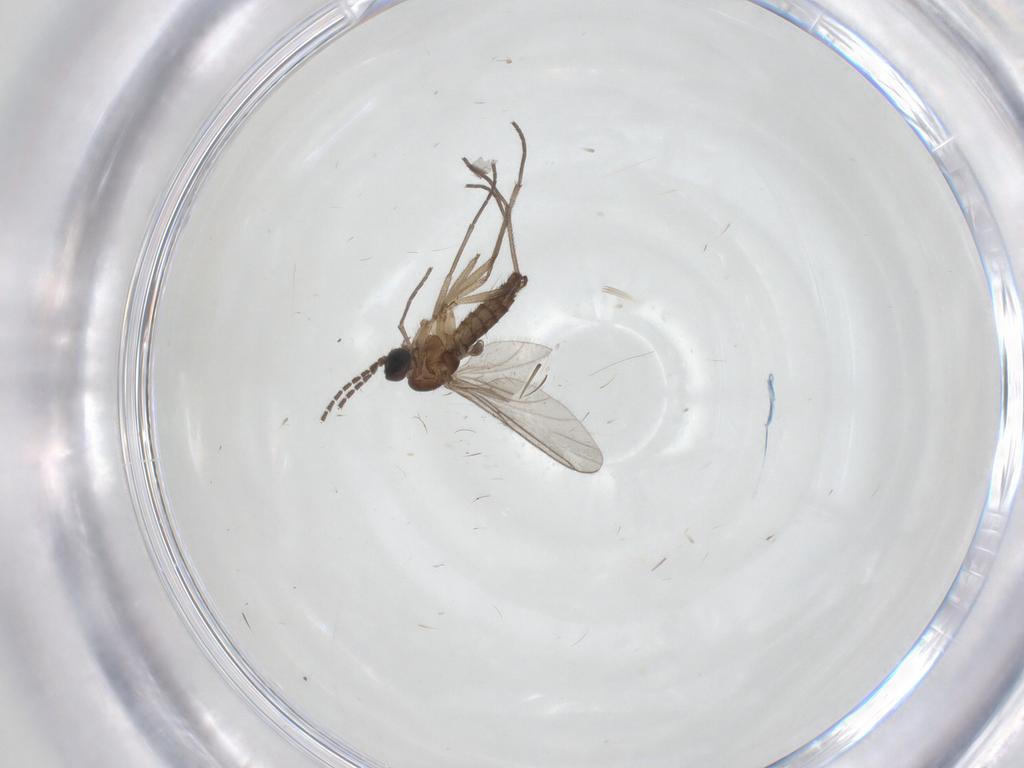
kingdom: Animalia
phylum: Arthropoda
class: Insecta
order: Diptera
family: Sciaridae
